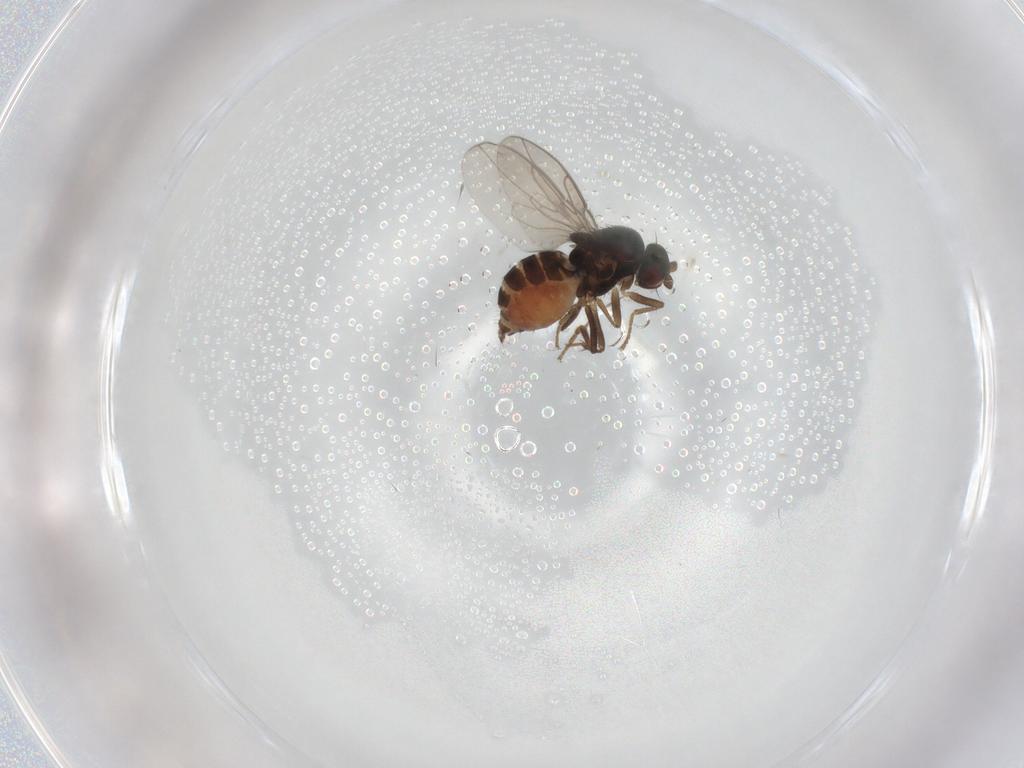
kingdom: Animalia
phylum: Arthropoda
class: Insecta
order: Diptera
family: Sphaeroceridae
